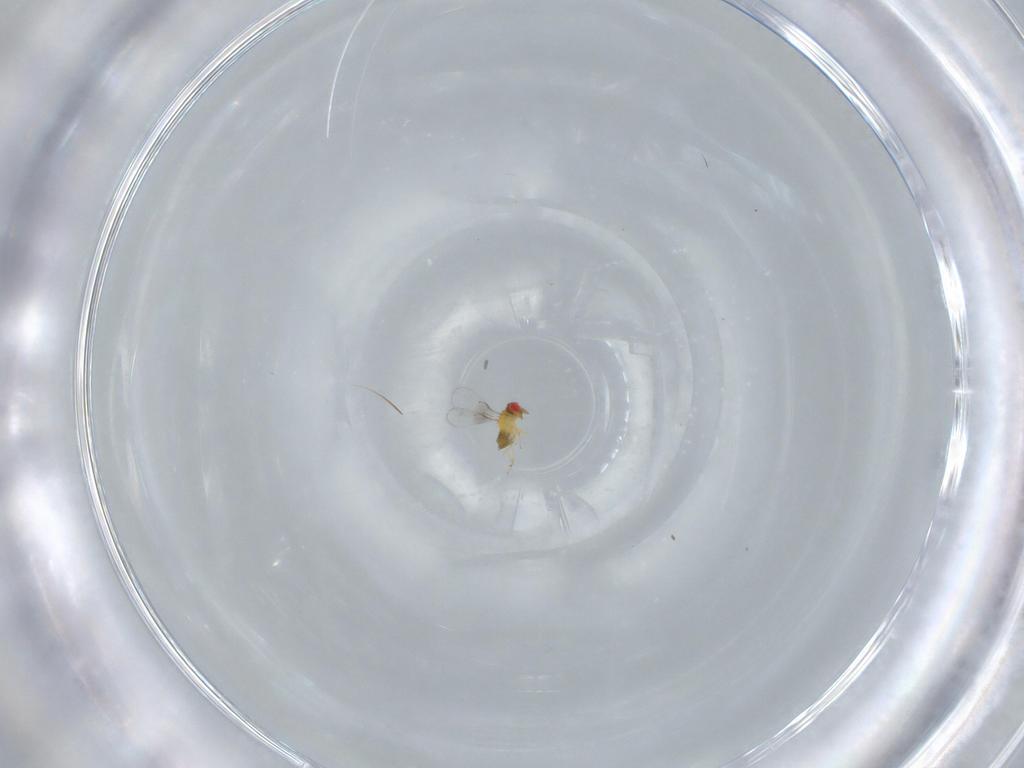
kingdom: Animalia
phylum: Arthropoda
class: Insecta
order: Hymenoptera
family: Trichogrammatidae
